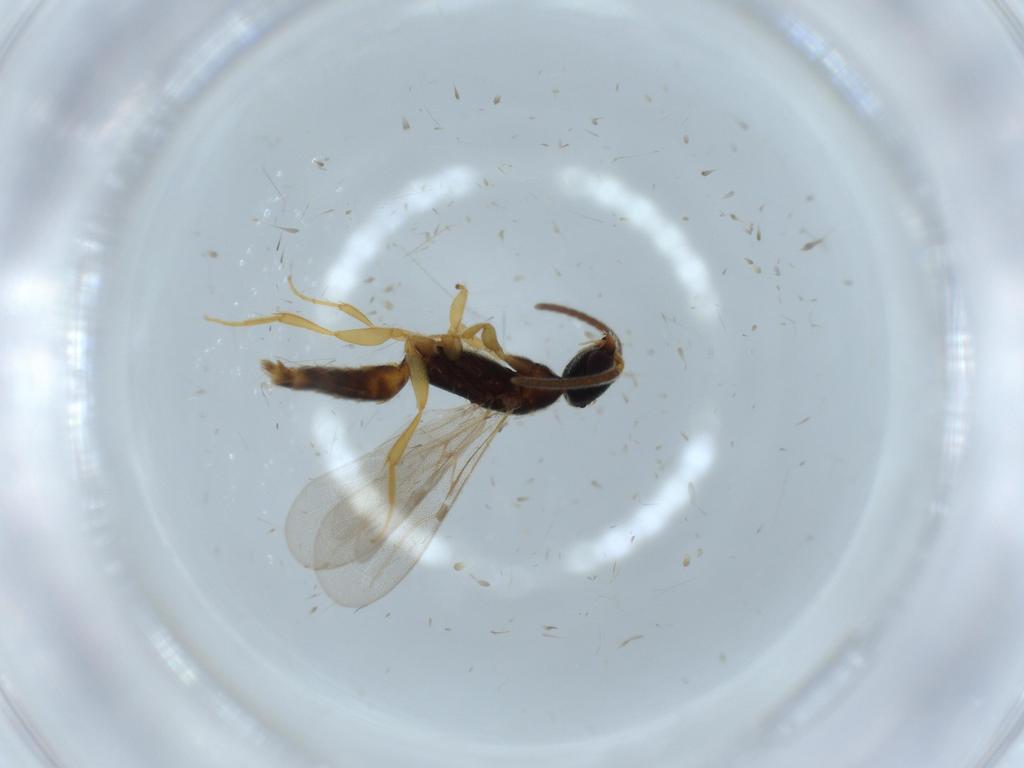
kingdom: Animalia
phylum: Arthropoda
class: Insecta
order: Hymenoptera
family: Bethylidae
